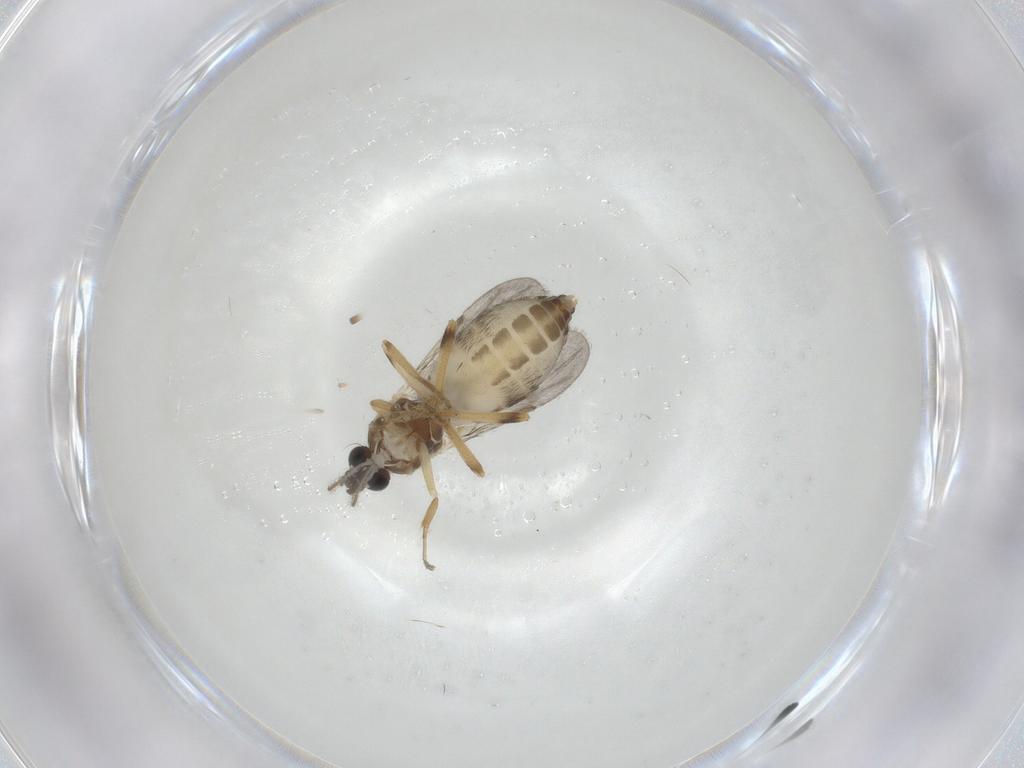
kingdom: Animalia
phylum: Arthropoda
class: Insecta
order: Diptera
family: Ceratopogonidae
